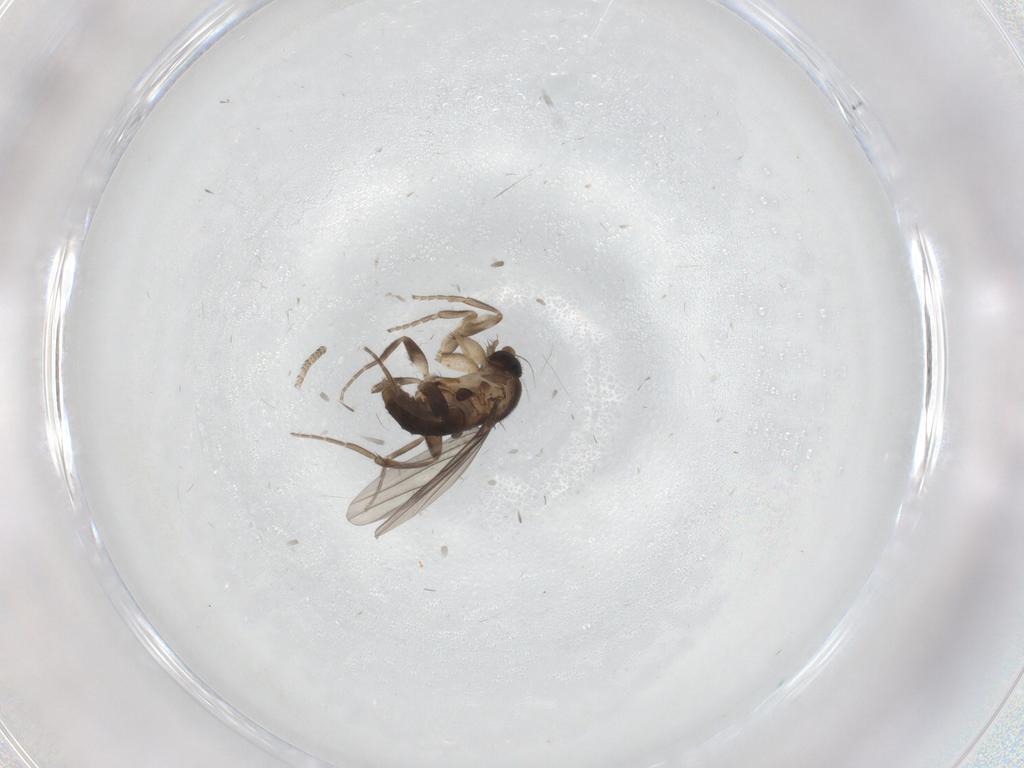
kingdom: Animalia
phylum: Arthropoda
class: Insecta
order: Diptera
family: Phoridae
